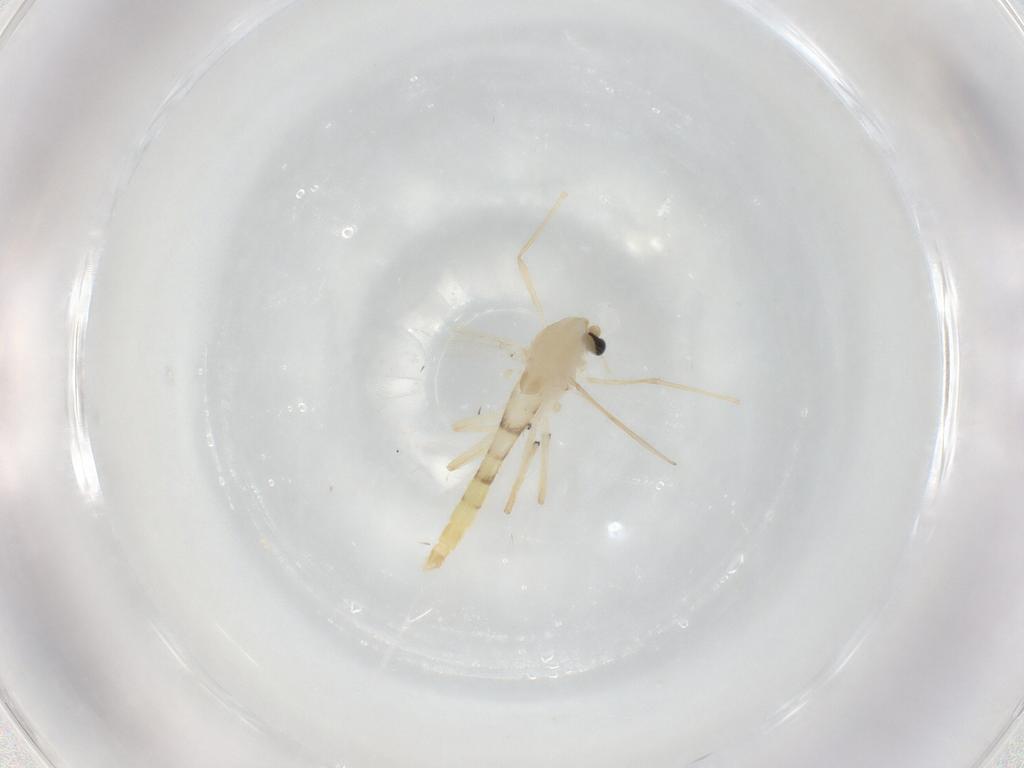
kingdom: Animalia
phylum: Arthropoda
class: Insecta
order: Diptera
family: Chironomidae
